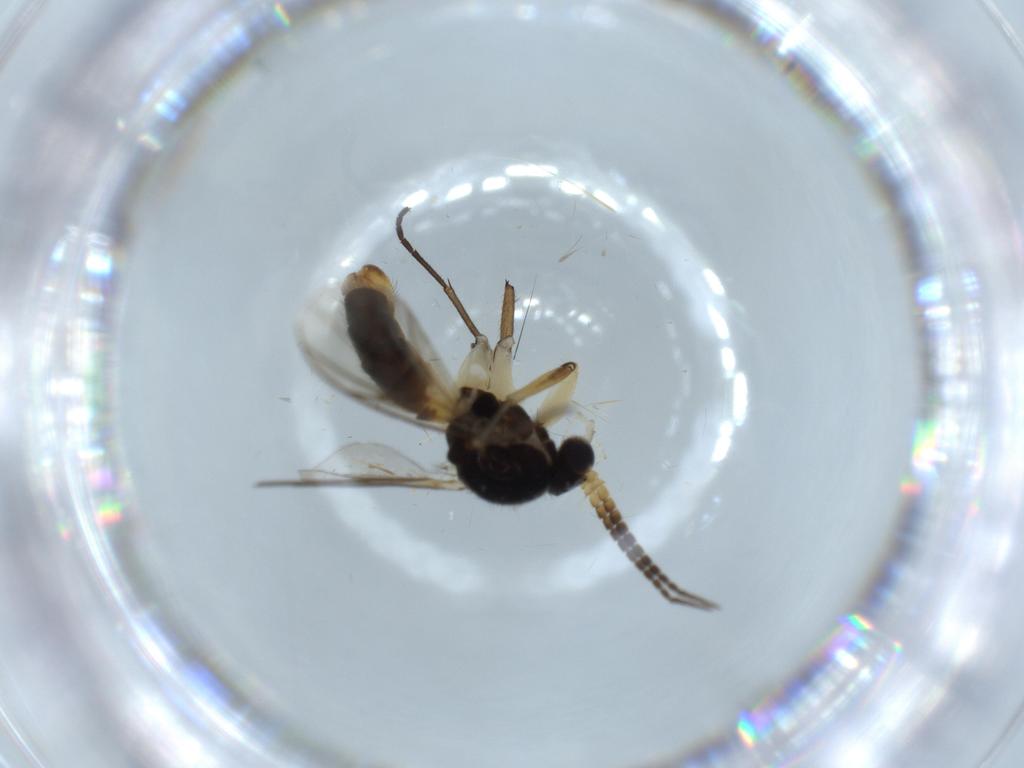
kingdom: Animalia
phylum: Arthropoda
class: Insecta
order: Diptera
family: Mycetophilidae
